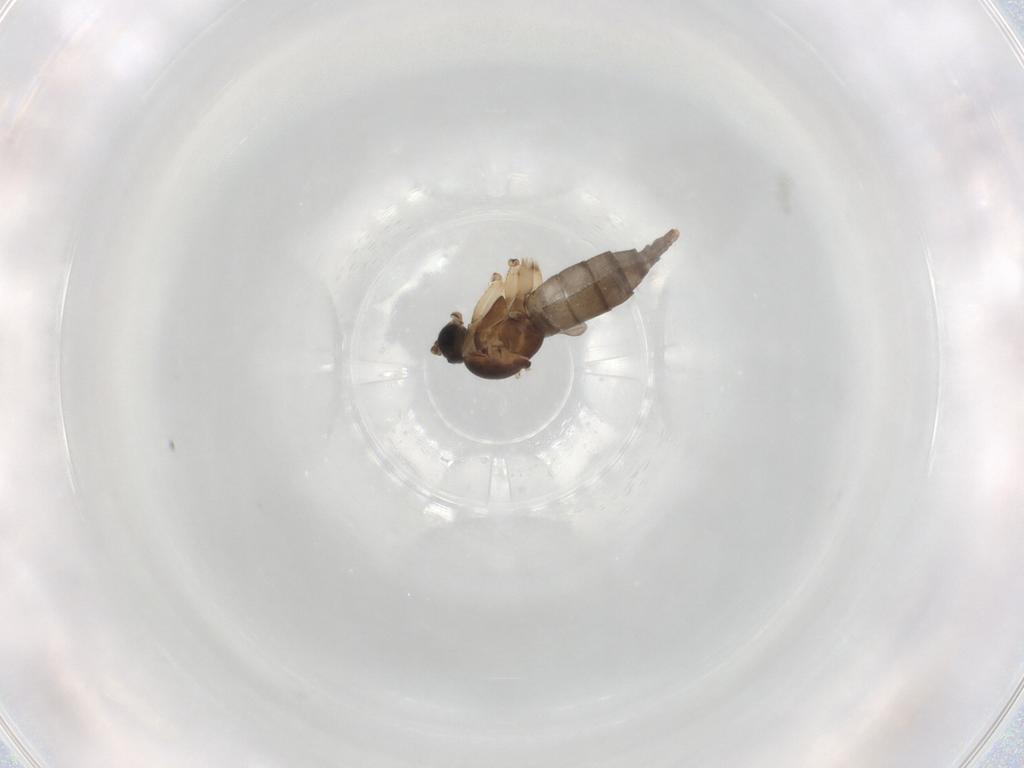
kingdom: Animalia
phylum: Arthropoda
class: Insecta
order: Diptera
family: Sciaridae
